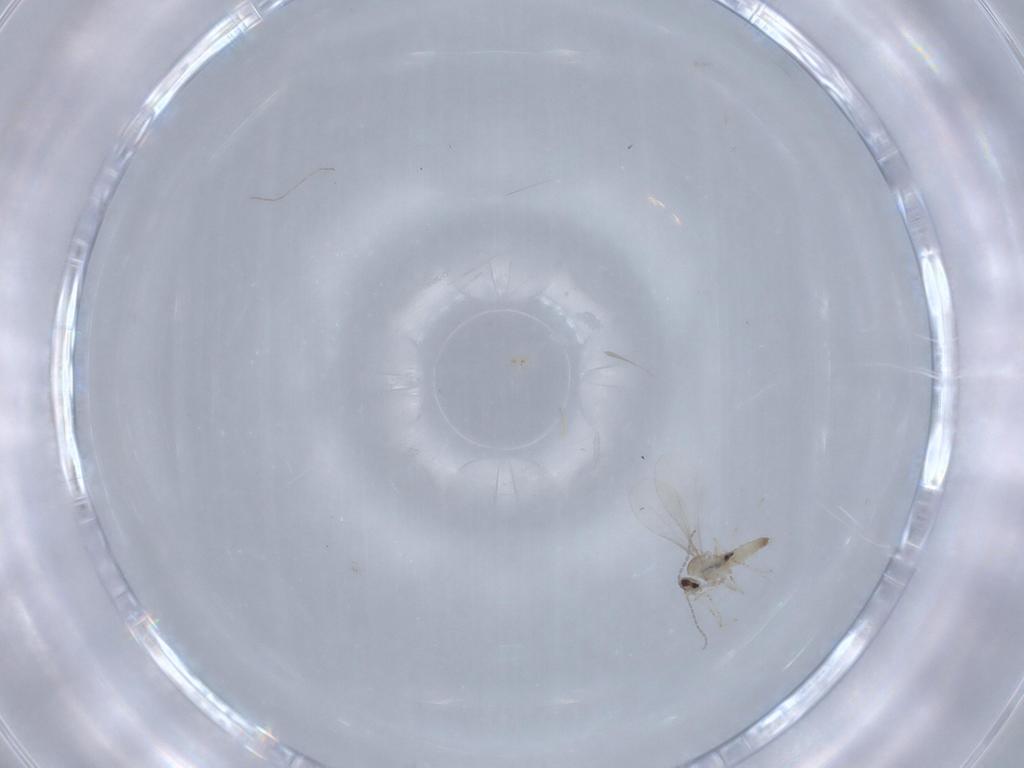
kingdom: Animalia
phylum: Arthropoda
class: Insecta
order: Diptera
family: Cecidomyiidae
